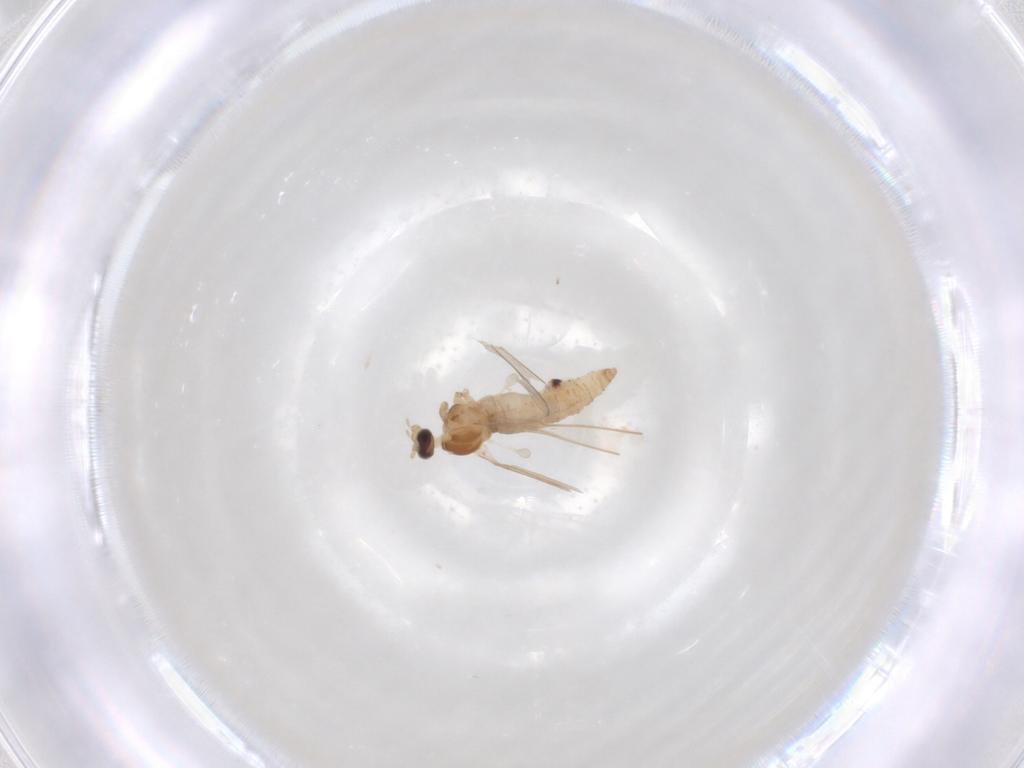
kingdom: Animalia
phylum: Arthropoda
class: Insecta
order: Diptera
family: Cecidomyiidae
